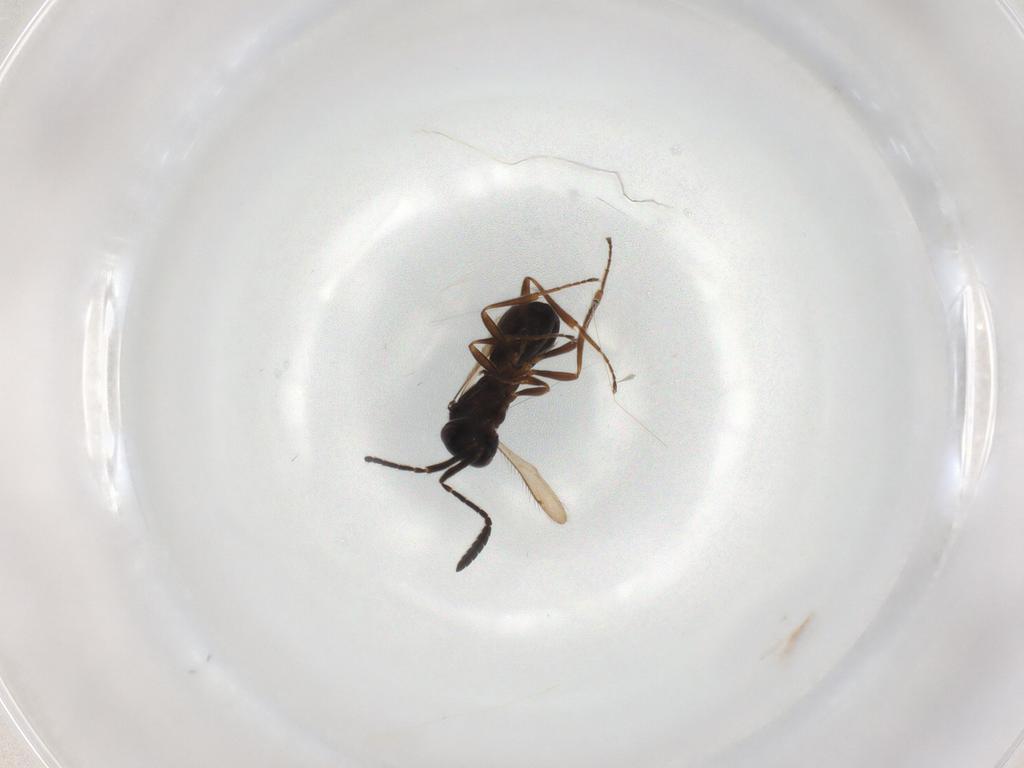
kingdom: Animalia
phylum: Arthropoda
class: Insecta
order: Hymenoptera
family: Scelionidae
